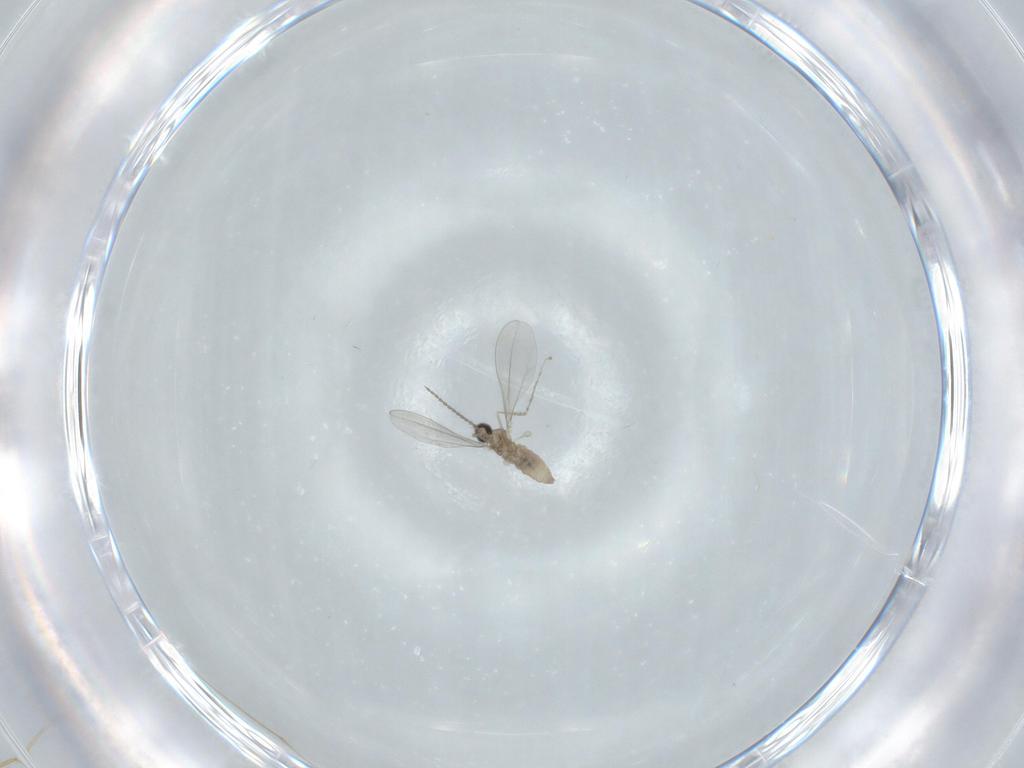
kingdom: Animalia
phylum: Arthropoda
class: Insecta
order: Diptera
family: Cecidomyiidae
